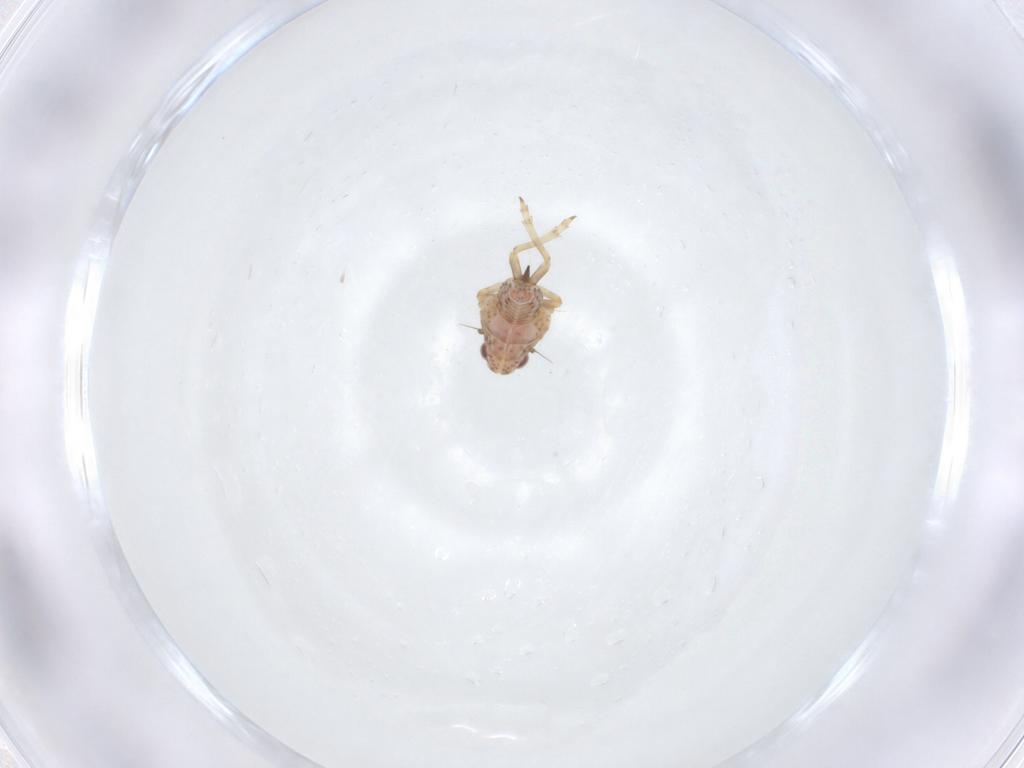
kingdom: Animalia
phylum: Arthropoda
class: Insecta
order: Hemiptera
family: Tropiduchidae
